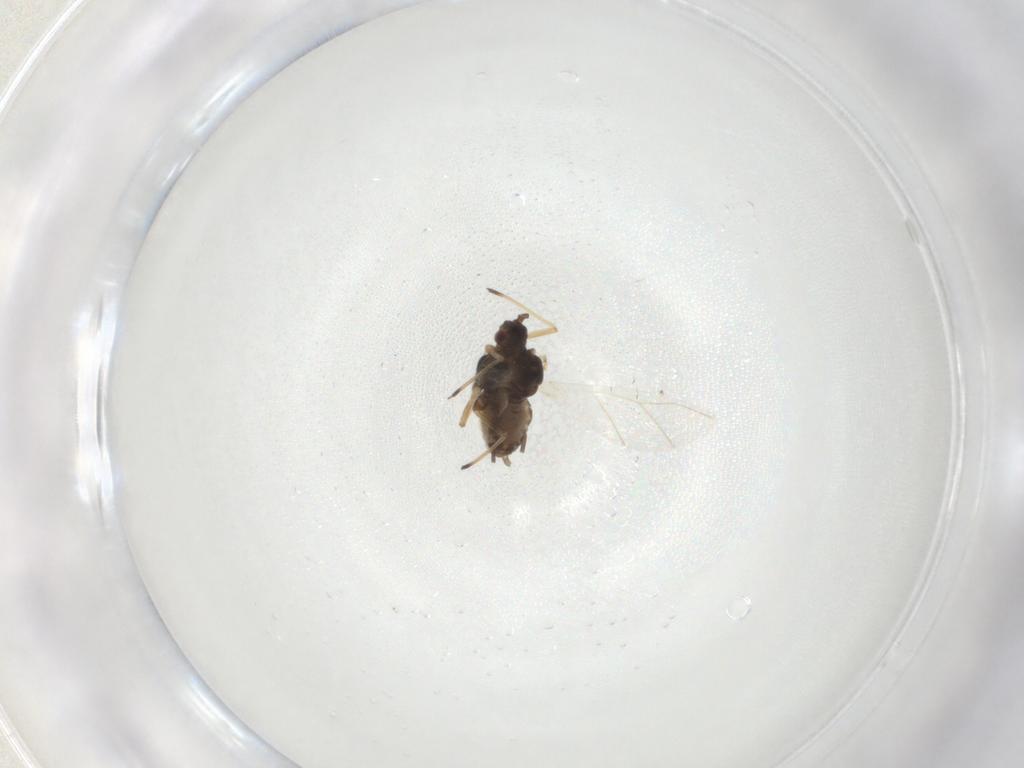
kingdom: Animalia
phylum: Arthropoda
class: Insecta
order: Hemiptera
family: Aphididae
